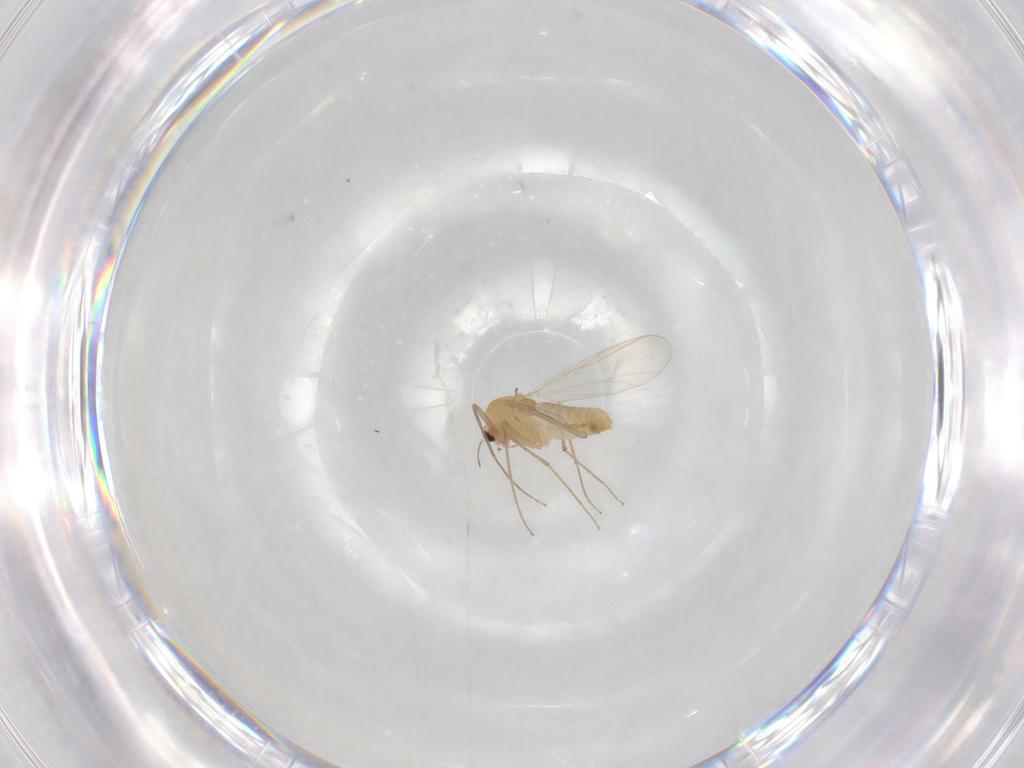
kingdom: Animalia
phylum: Arthropoda
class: Insecta
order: Diptera
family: Chironomidae
